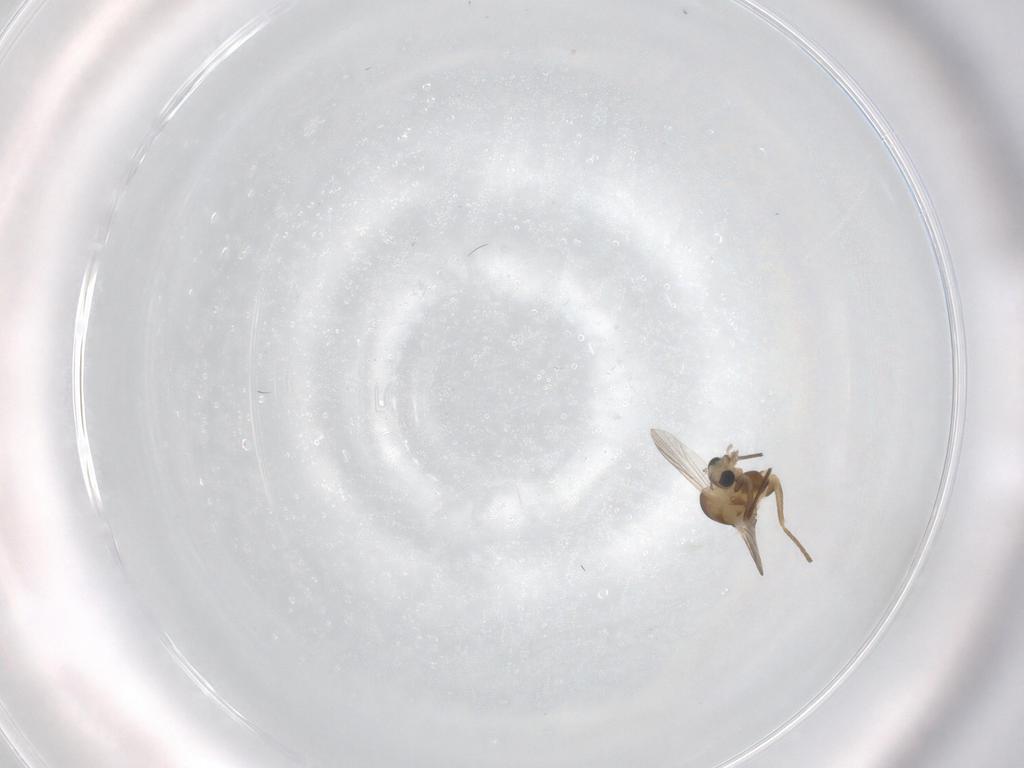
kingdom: Animalia
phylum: Arthropoda
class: Insecta
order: Diptera
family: Chironomidae
